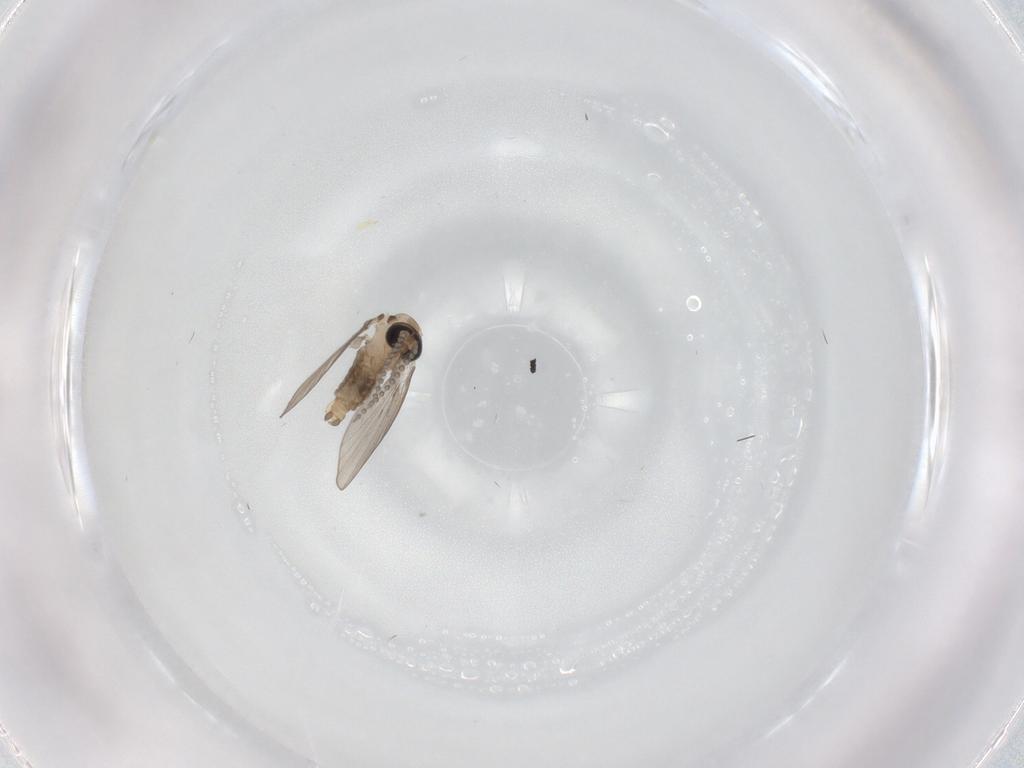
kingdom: Animalia
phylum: Arthropoda
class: Insecta
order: Diptera
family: Psychodidae
